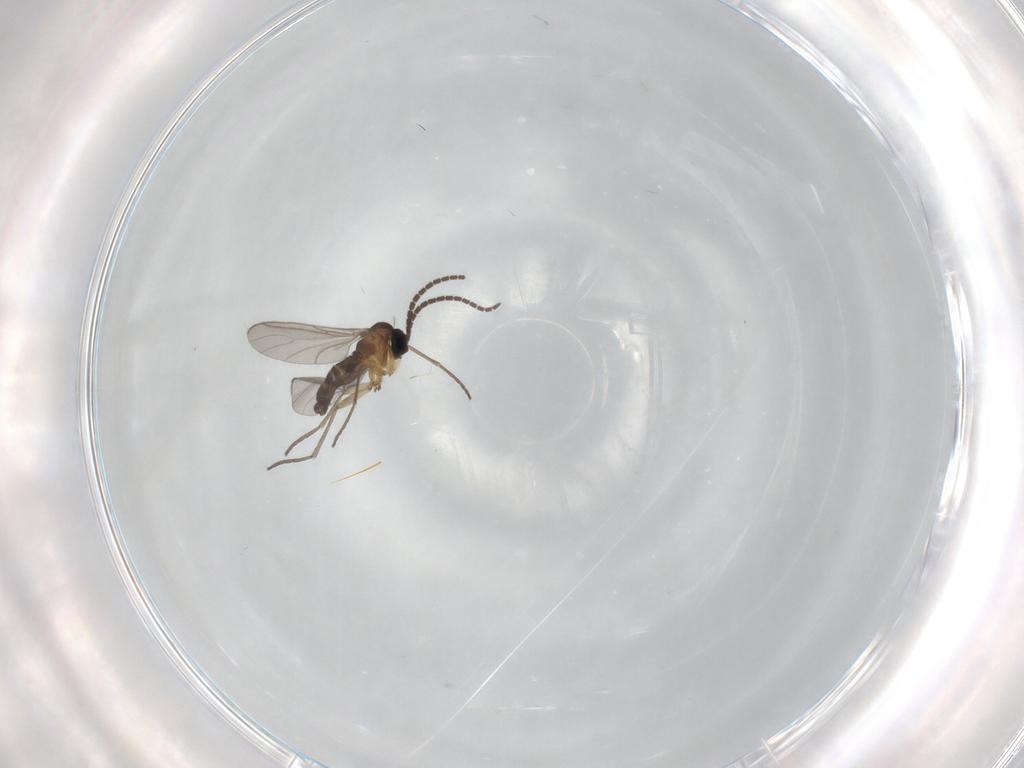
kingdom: Animalia
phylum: Arthropoda
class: Insecta
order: Diptera
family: Sciaridae
